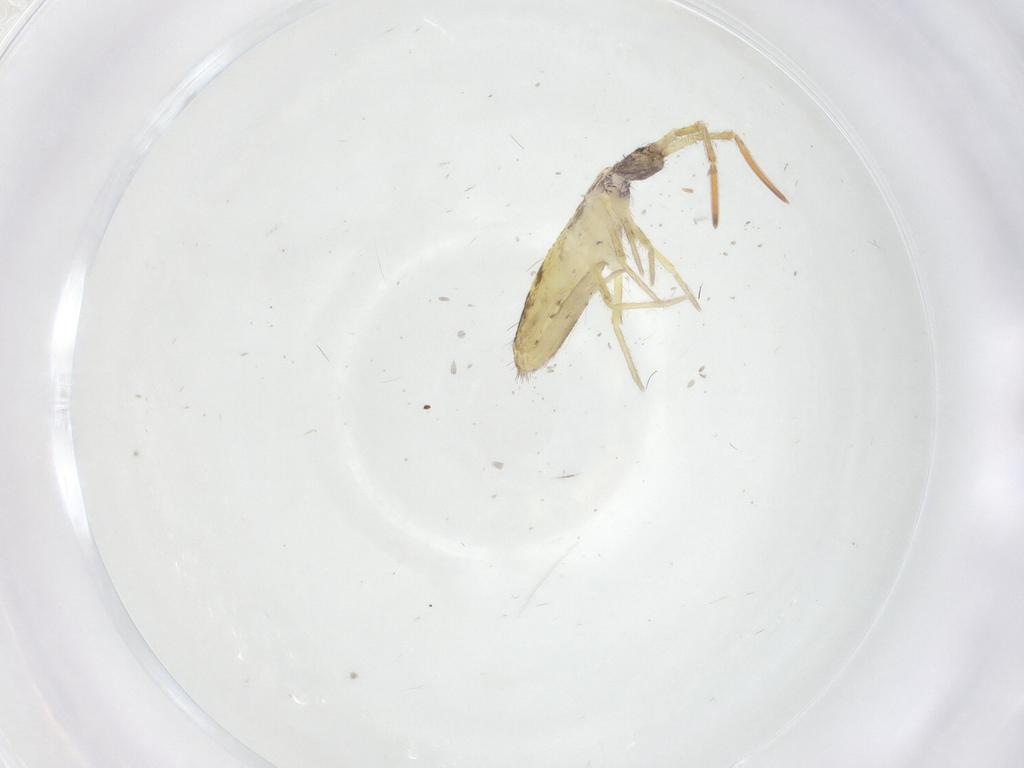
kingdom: Animalia
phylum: Arthropoda
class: Collembola
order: Entomobryomorpha
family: Entomobryidae
